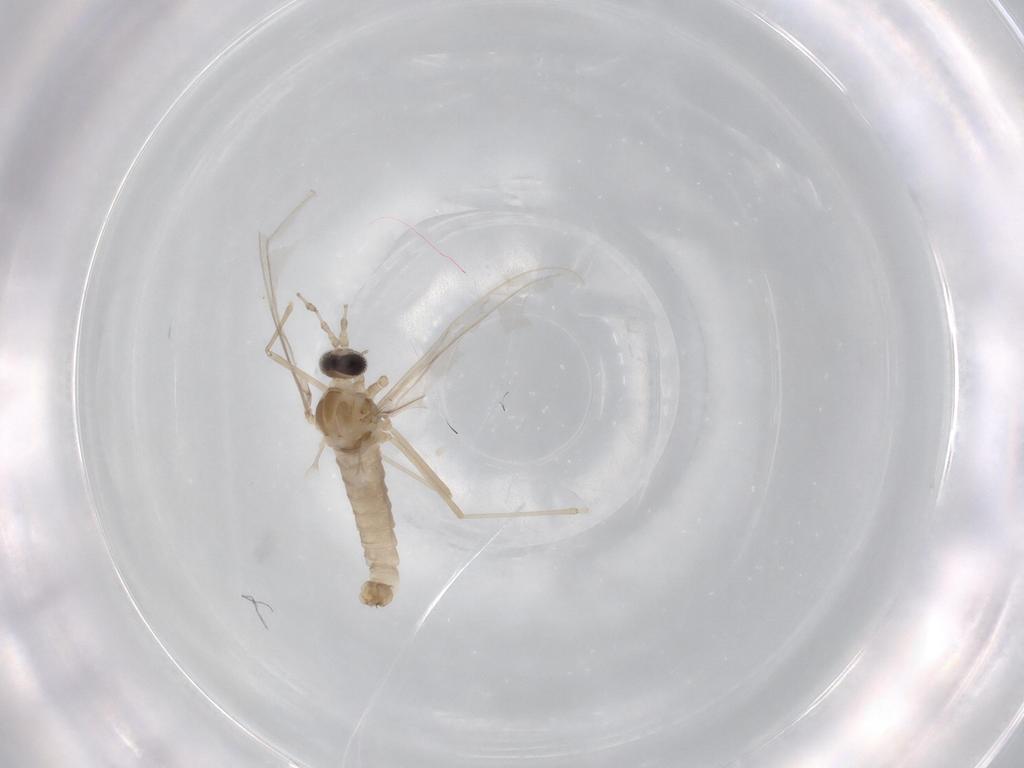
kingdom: Animalia
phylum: Arthropoda
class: Insecta
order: Diptera
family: Cecidomyiidae
